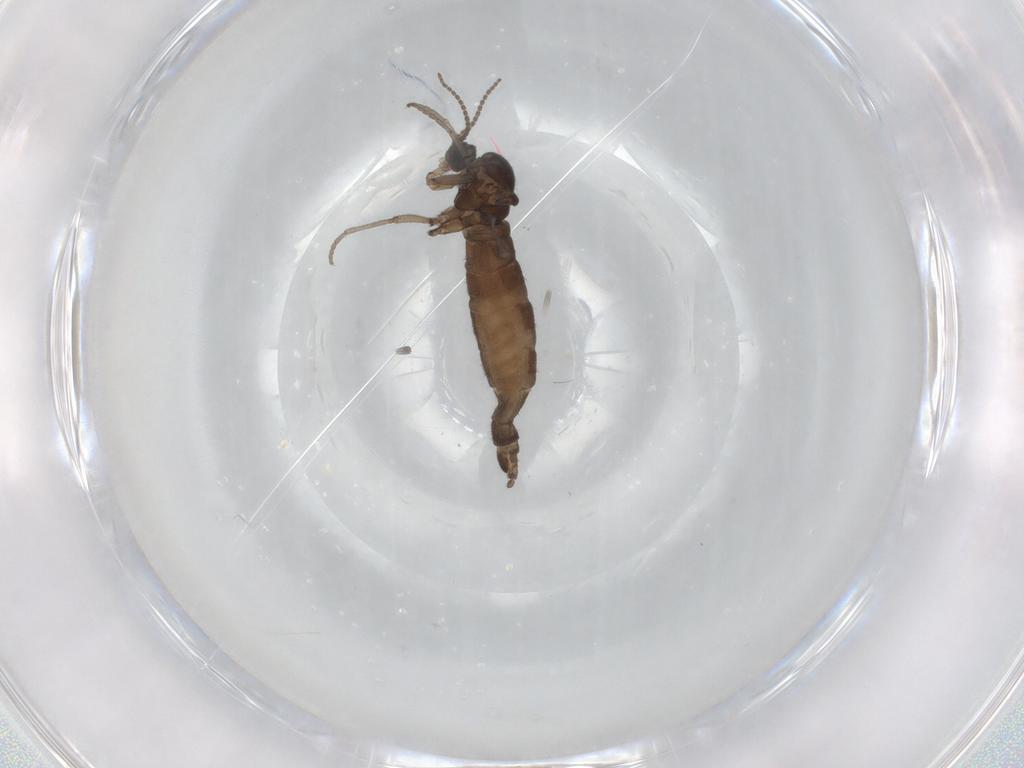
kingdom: Animalia
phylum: Arthropoda
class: Insecta
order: Diptera
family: Sciaridae
